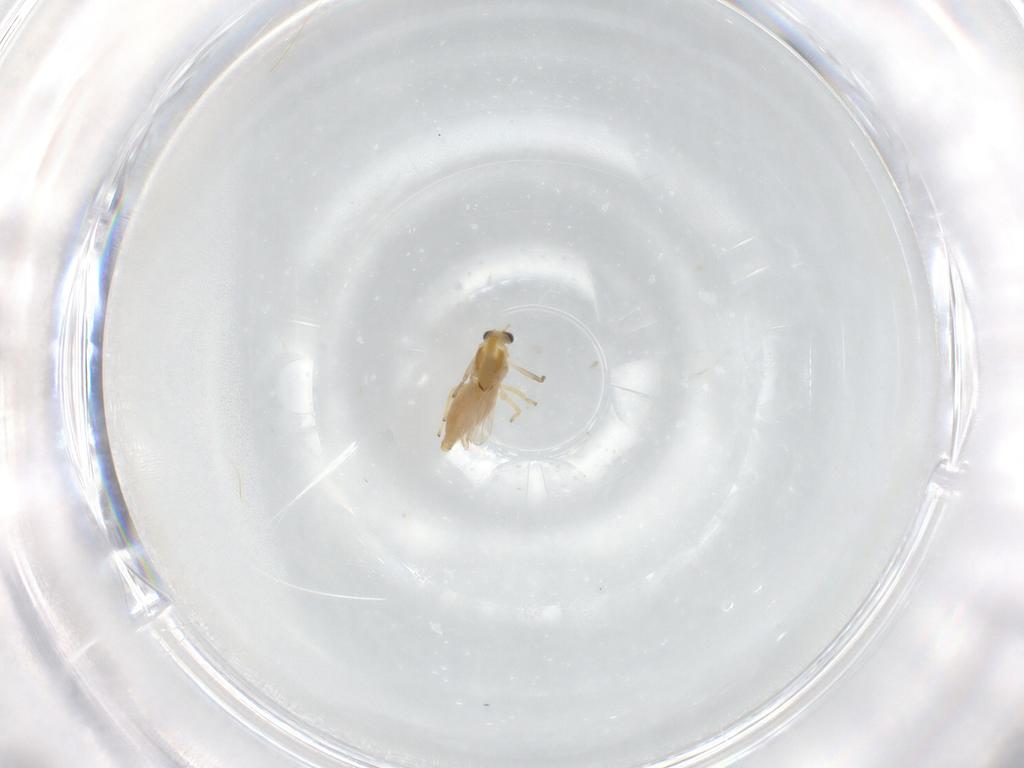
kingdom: Animalia
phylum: Arthropoda
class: Insecta
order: Diptera
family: Chironomidae
